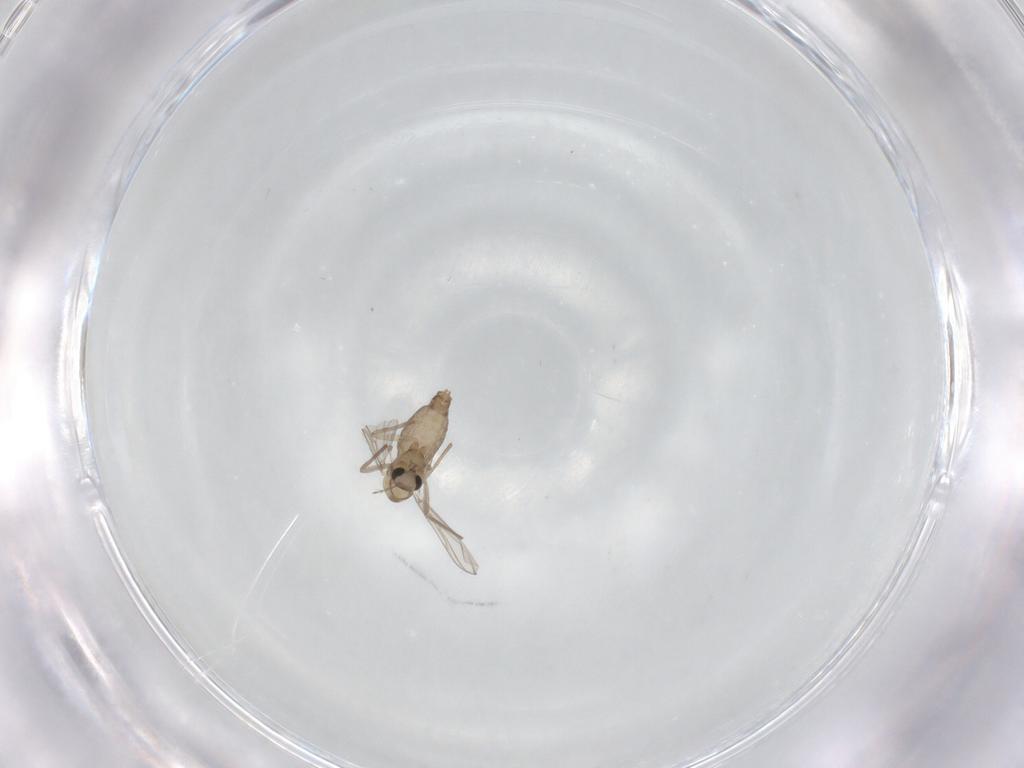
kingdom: Animalia
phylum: Arthropoda
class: Insecta
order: Diptera
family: Chironomidae
